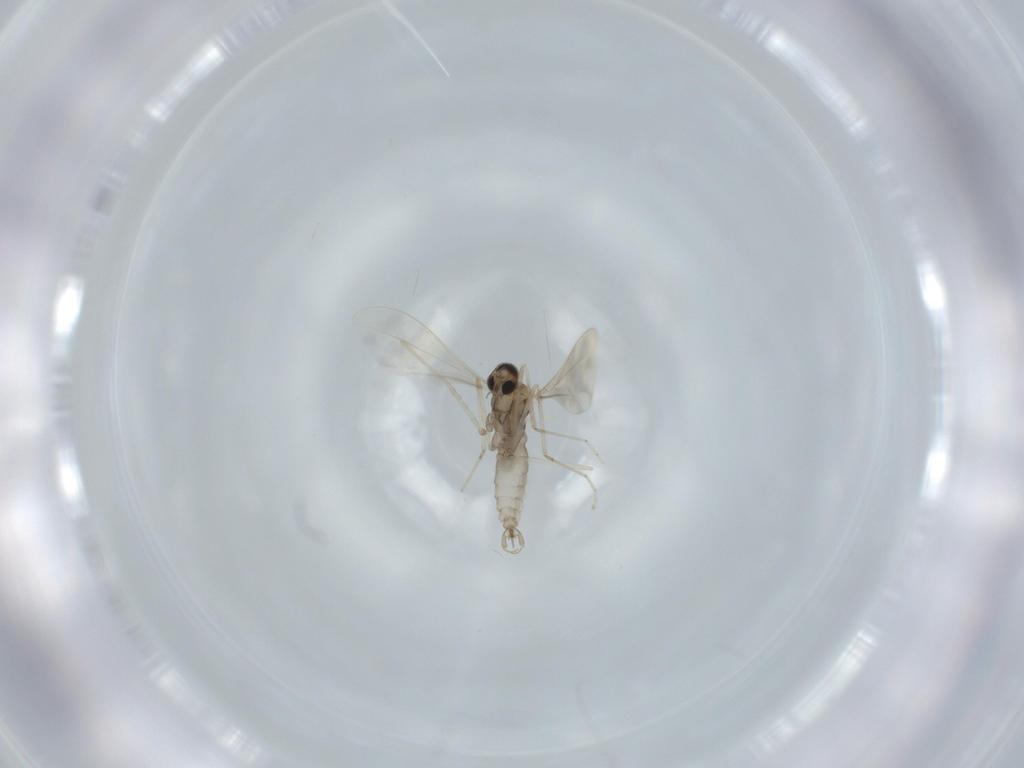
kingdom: Animalia
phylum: Arthropoda
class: Insecta
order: Diptera
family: Cecidomyiidae
